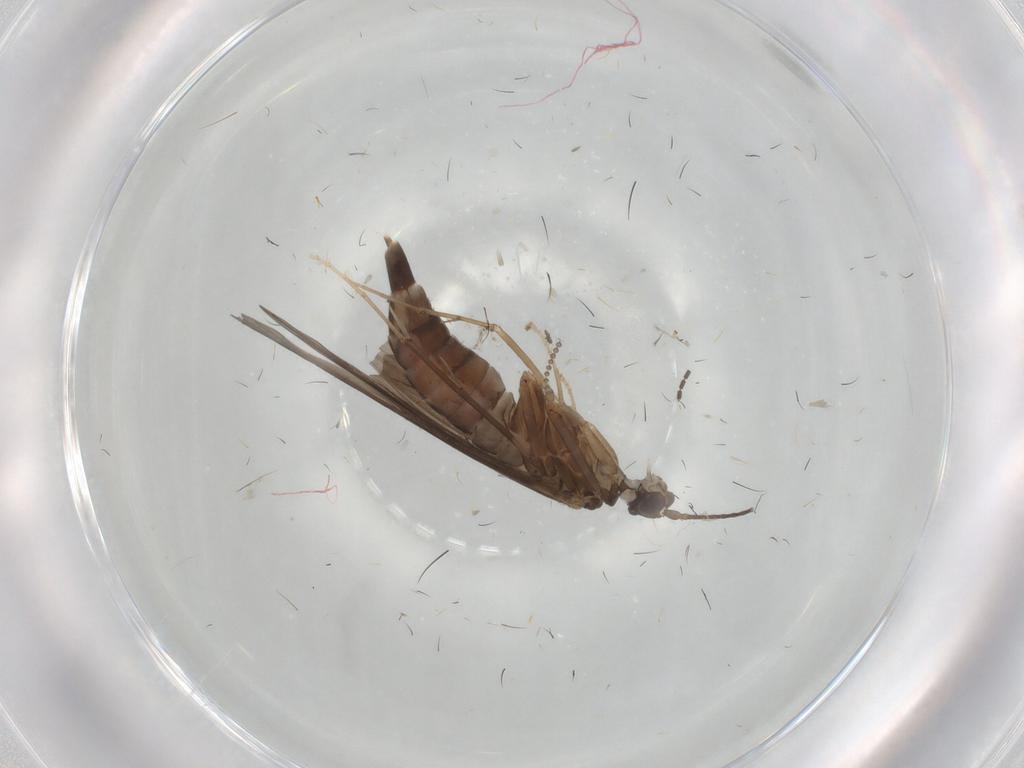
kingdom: Animalia
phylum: Arthropoda
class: Insecta
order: Trichoptera
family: Xiphocentronidae
